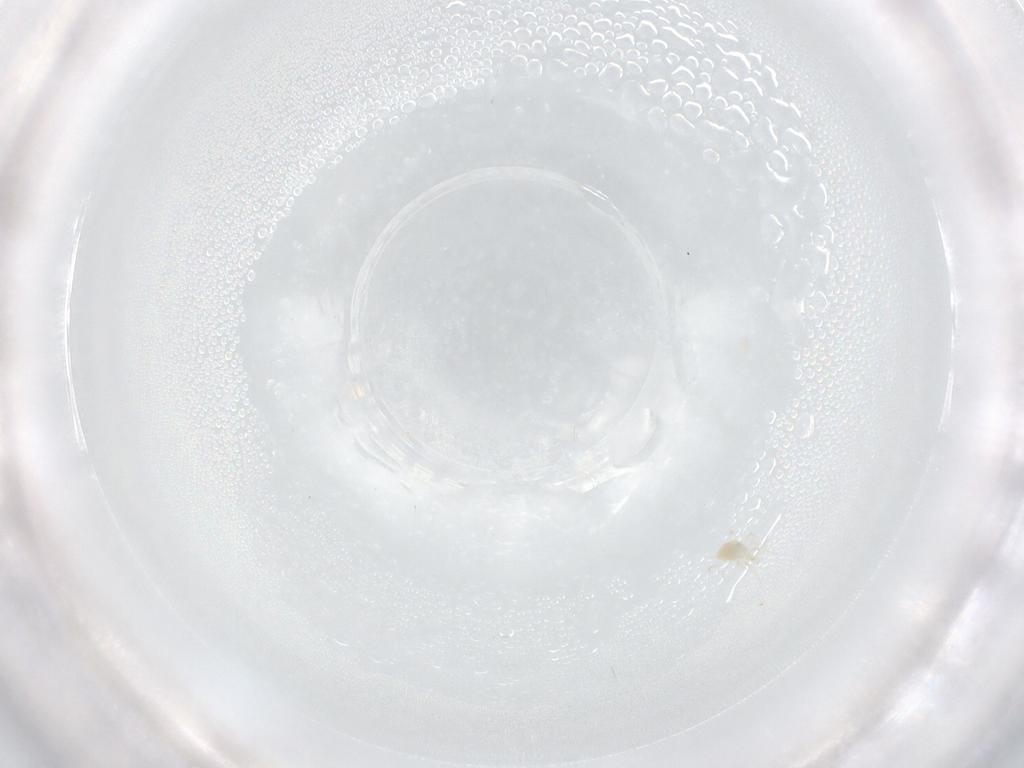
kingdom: Animalia
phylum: Arthropoda
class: Arachnida
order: Mesostigmata
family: Phytoseiidae
